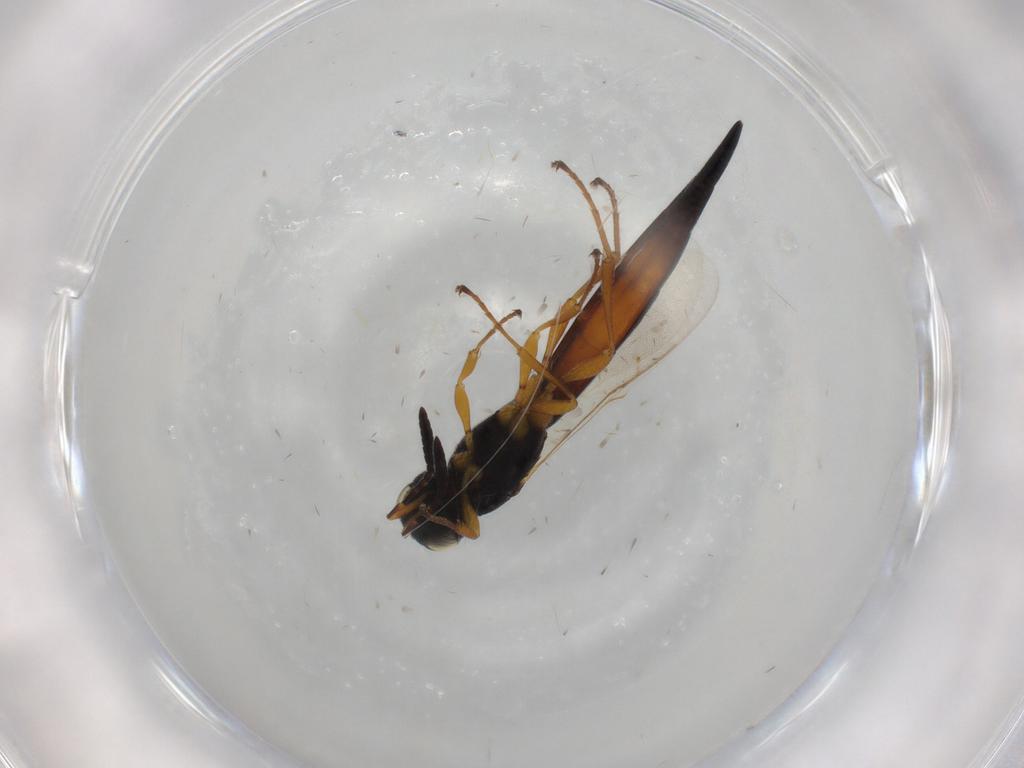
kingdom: Animalia
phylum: Arthropoda
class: Insecta
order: Hymenoptera
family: Scelionidae
